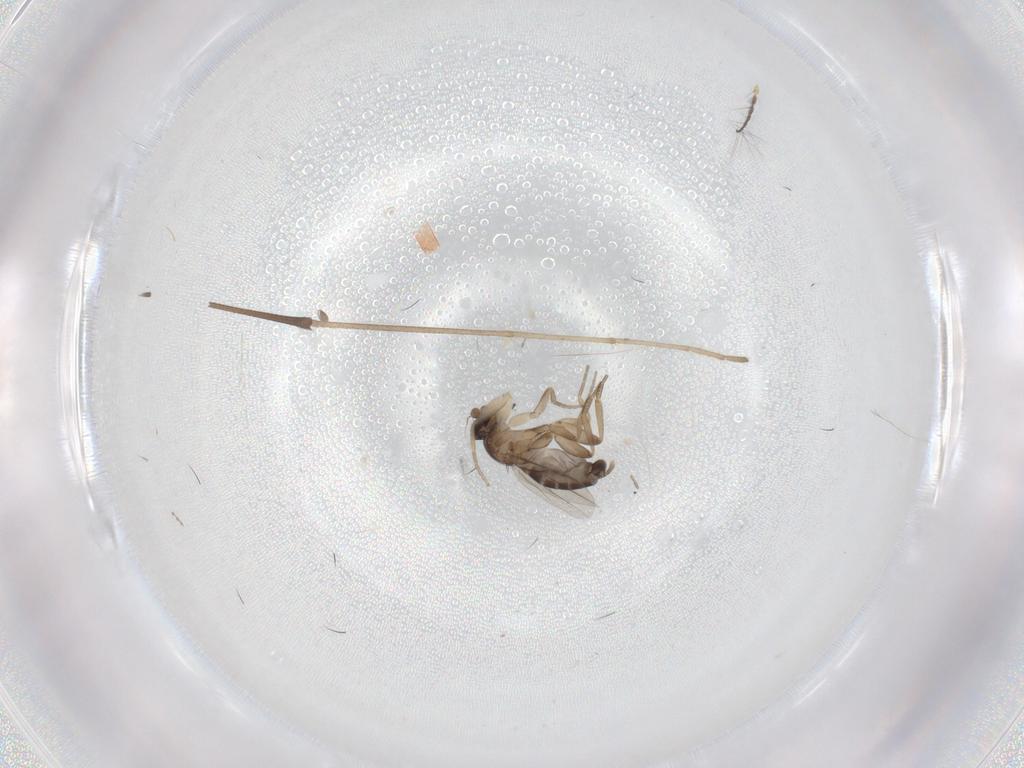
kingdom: Animalia
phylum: Arthropoda
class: Insecta
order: Diptera
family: Phoridae
